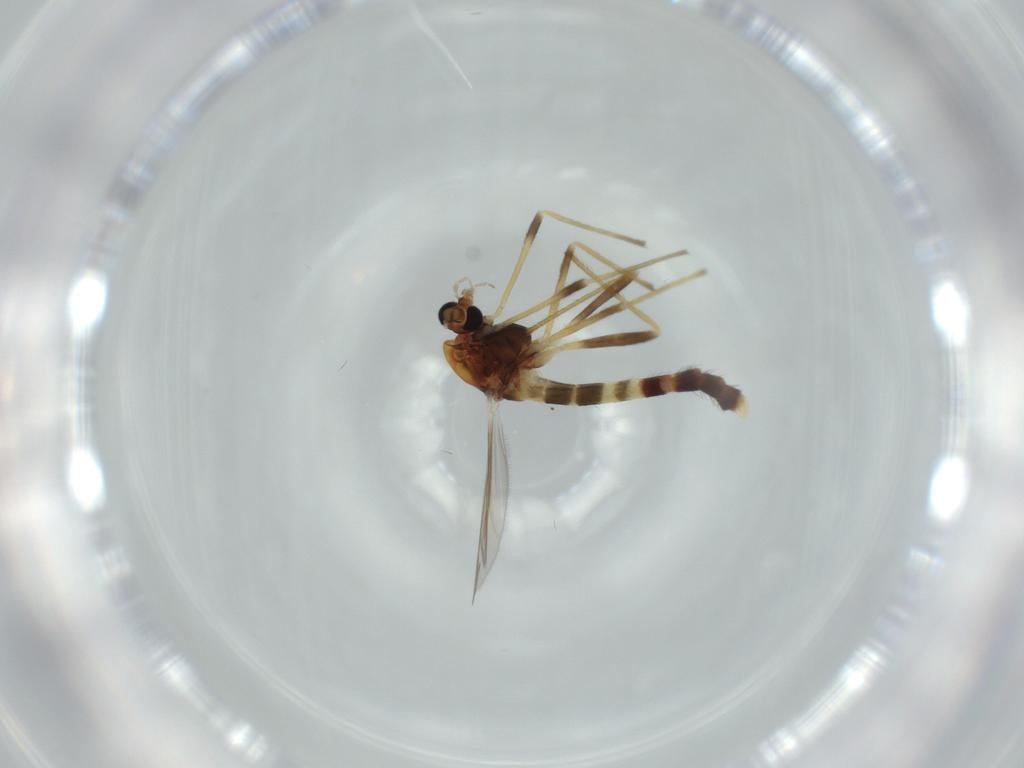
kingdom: Animalia
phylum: Arthropoda
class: Insecta
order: Diptera
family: Chironomidae
